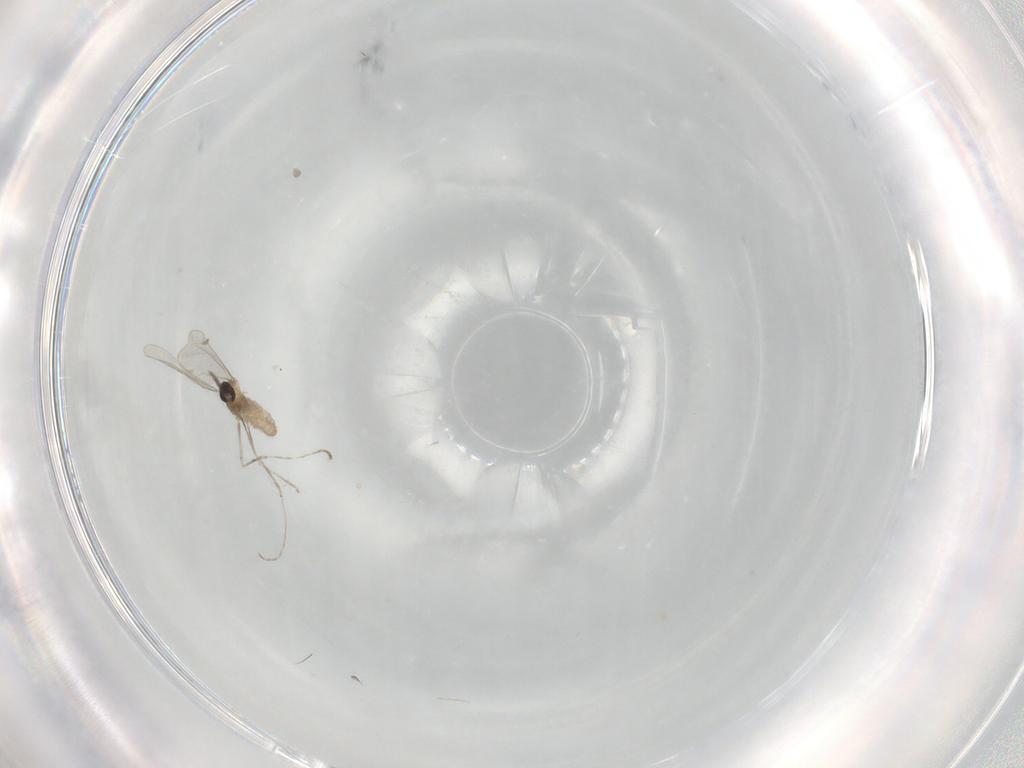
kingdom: Animalia
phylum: Arthropoda
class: Insecta
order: Diptera
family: Cecidomyiidae
